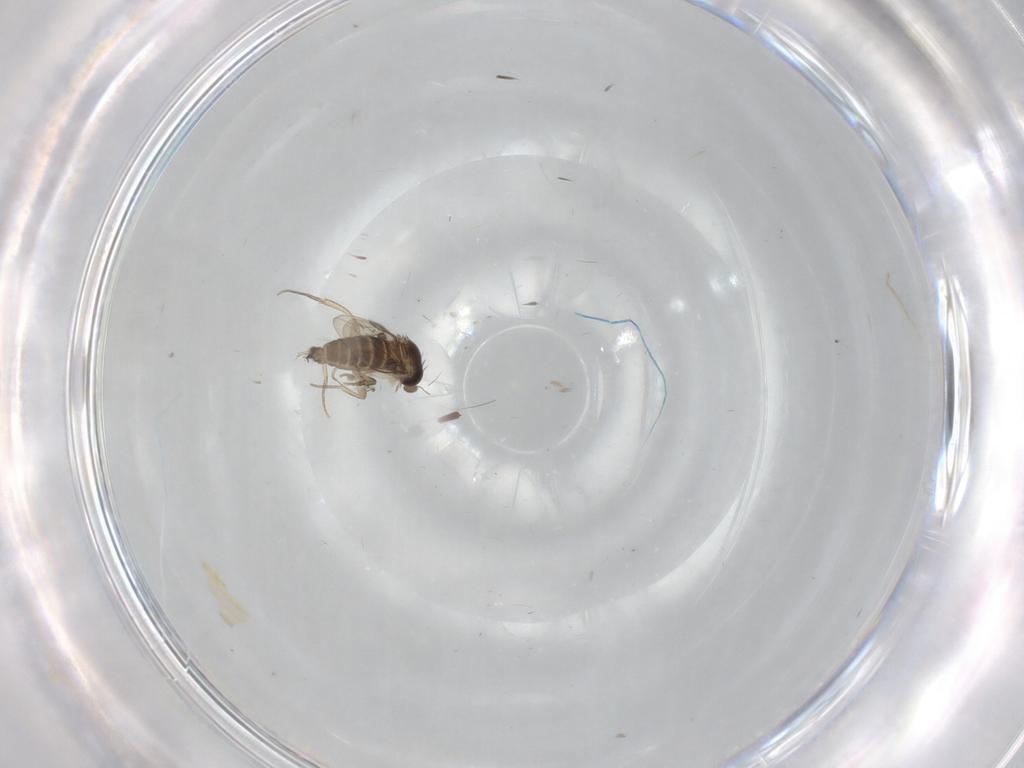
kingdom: Animalia
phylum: Arthropoda
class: Insecta
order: Diptera
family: Phoridae
